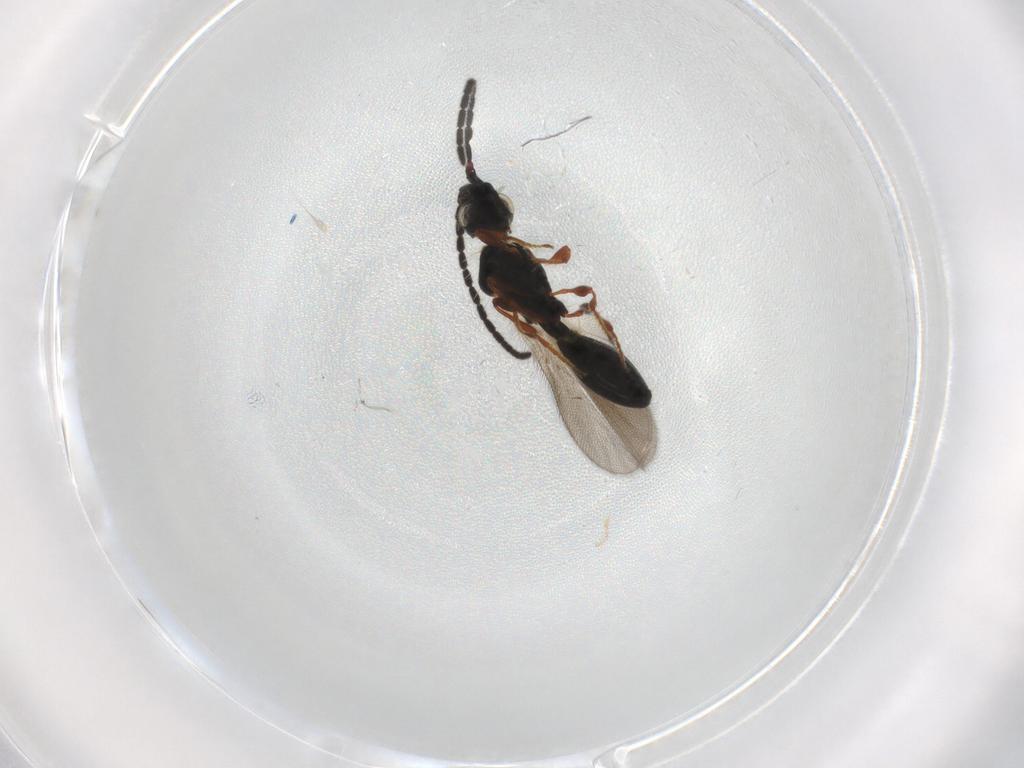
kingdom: Animalia
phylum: Arthropoda
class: Insecta
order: Hymenoptera
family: Diapriidae
